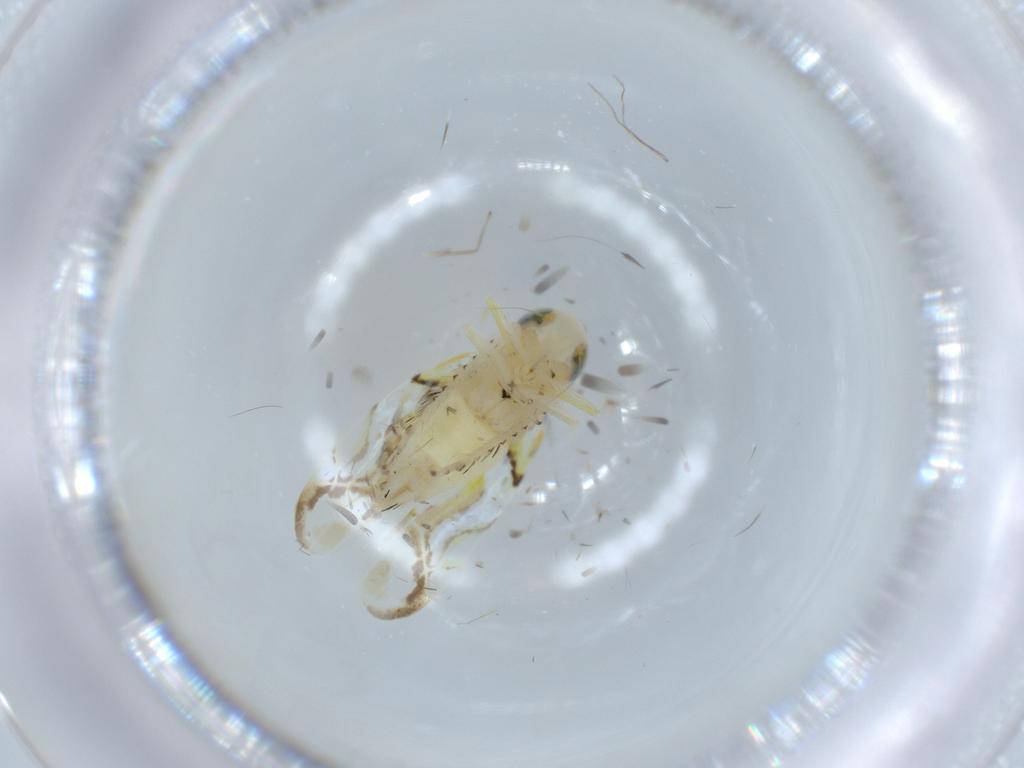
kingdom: Animalia
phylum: Arthropoda
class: Insecta
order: Hemiptera
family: Cicadellidae
